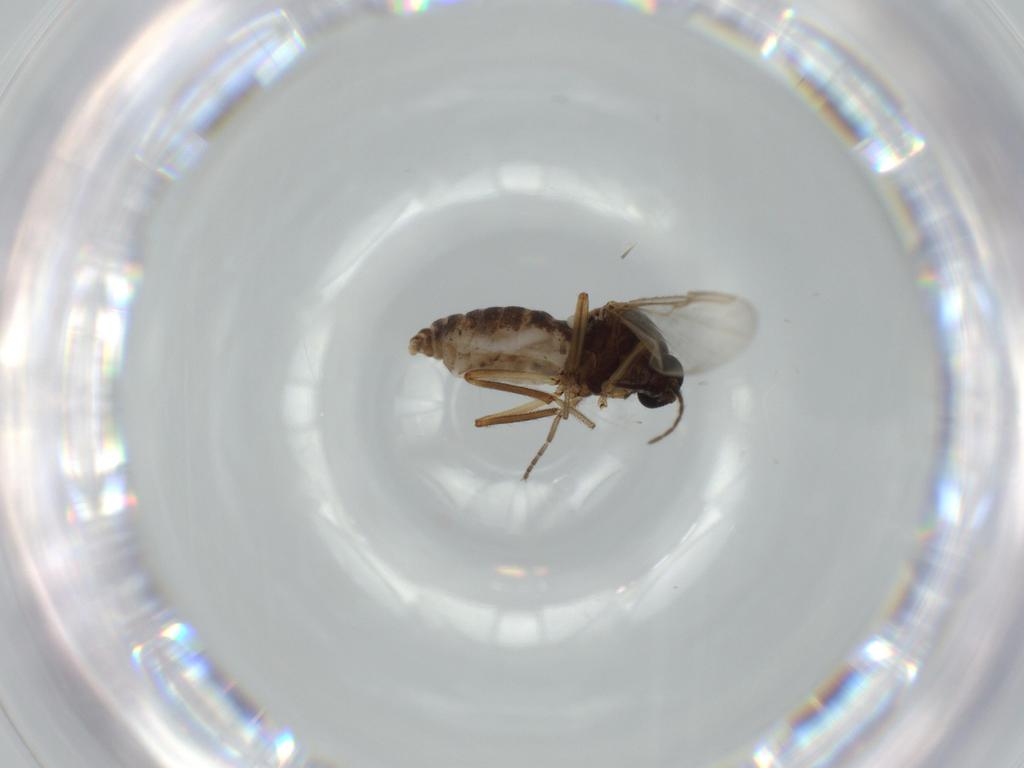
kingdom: Animalia
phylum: Arthropoda
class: Insecta
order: Diptera
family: Ceratopogonidae
